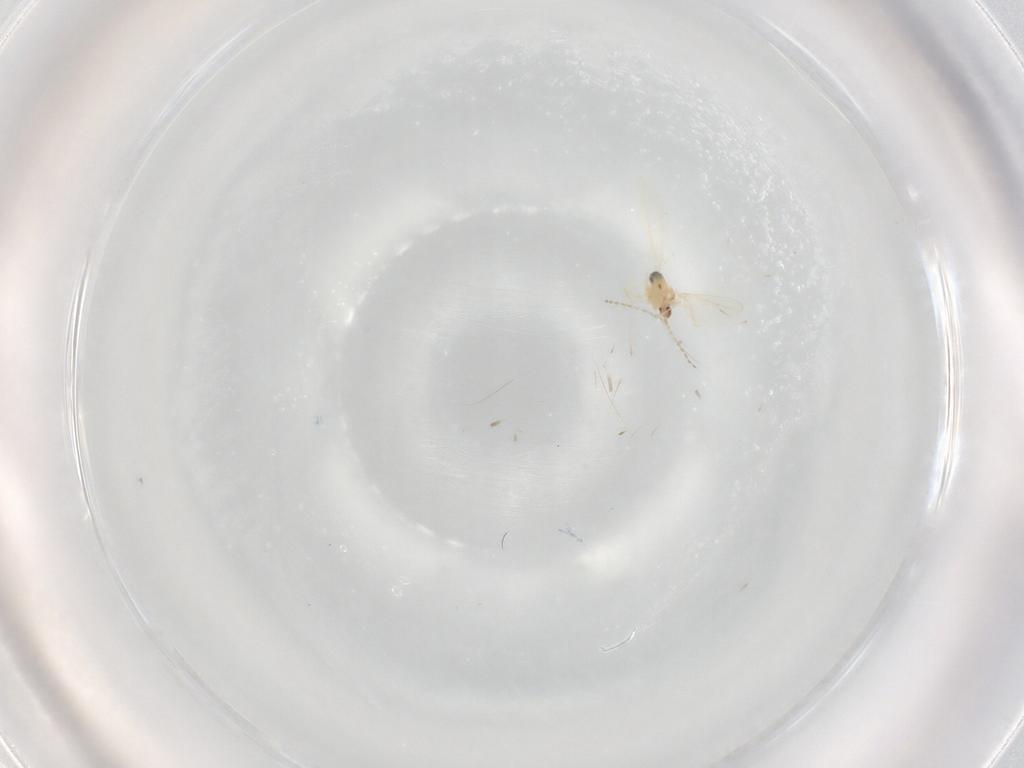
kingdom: Animalia
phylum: Arthropoda
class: Insecta
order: Diptera
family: Cecidomyiidae
